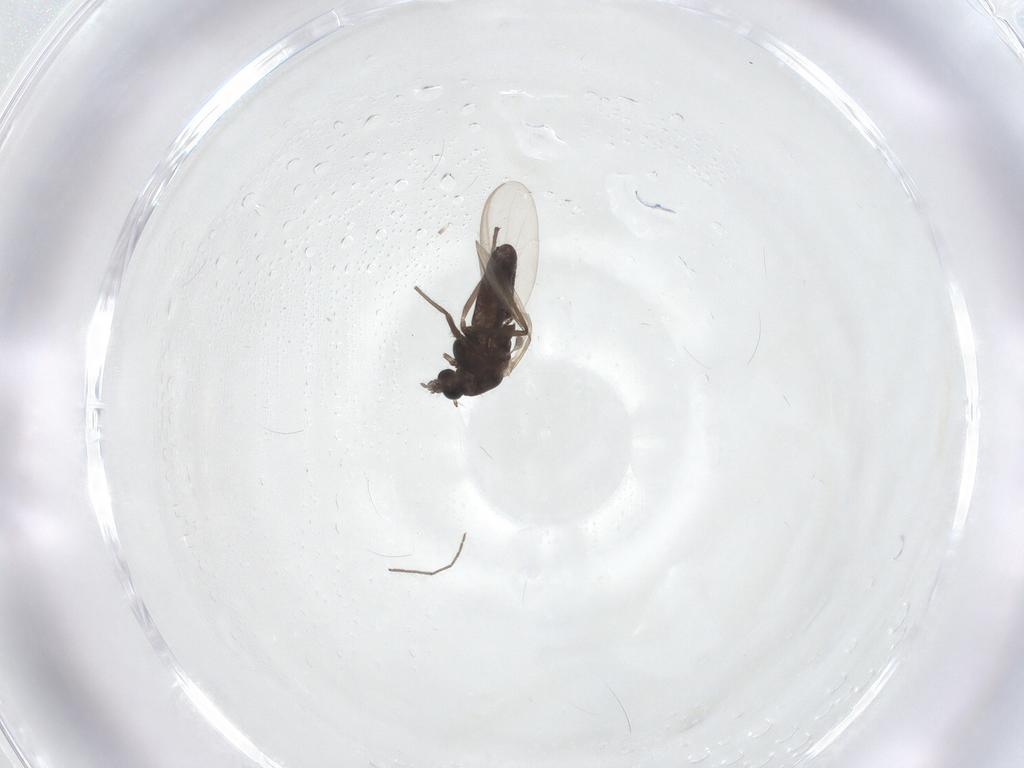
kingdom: Animalia
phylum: Arthropoda
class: Insecta
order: Diptera
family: Chironomidae
